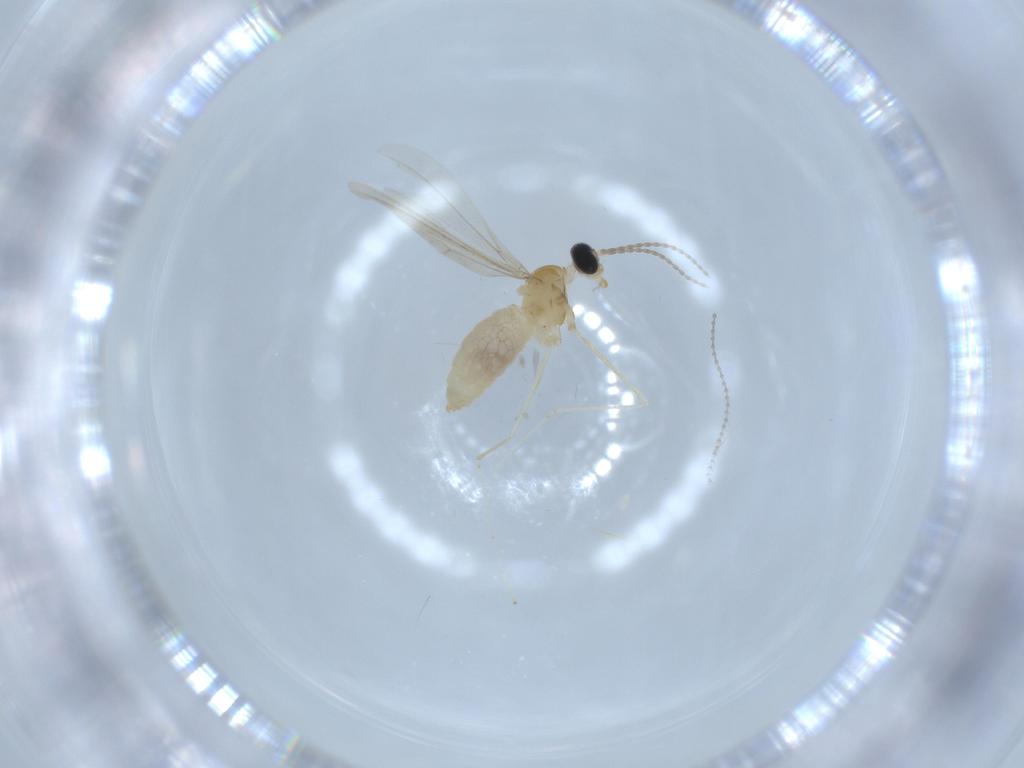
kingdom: Animalia
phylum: Arthropoda
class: Insecta
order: Diptera
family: Cecidomyiidae
